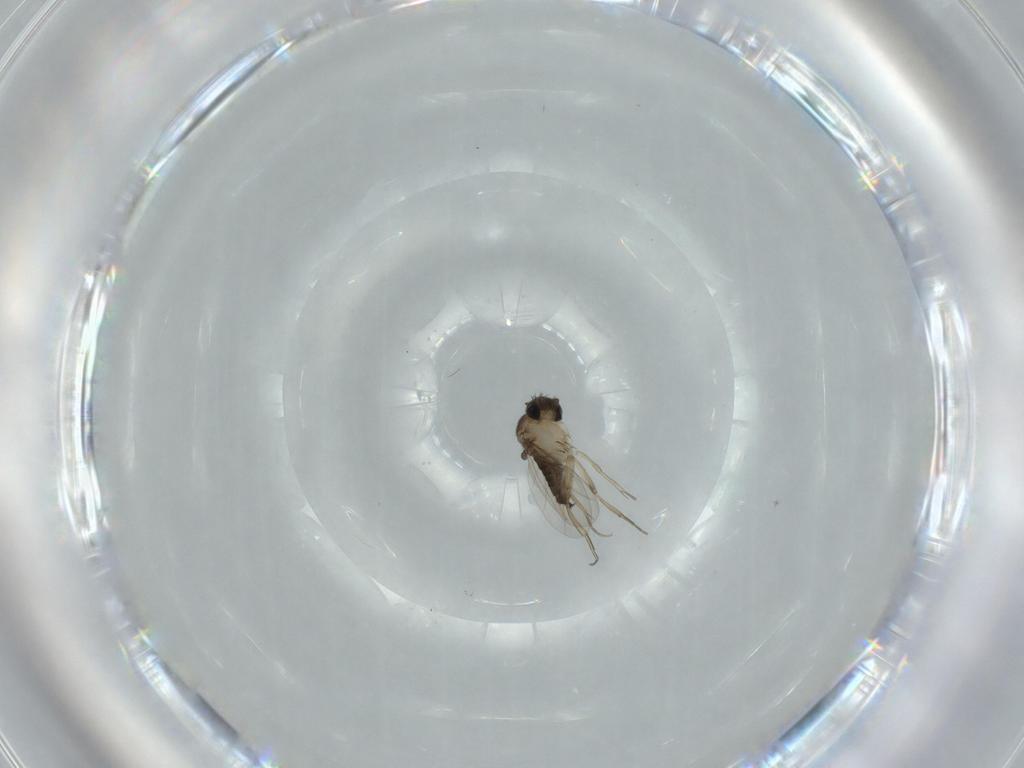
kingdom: Animalia
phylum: Arthropoda
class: Insecta
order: Diptera
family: Phoridae
